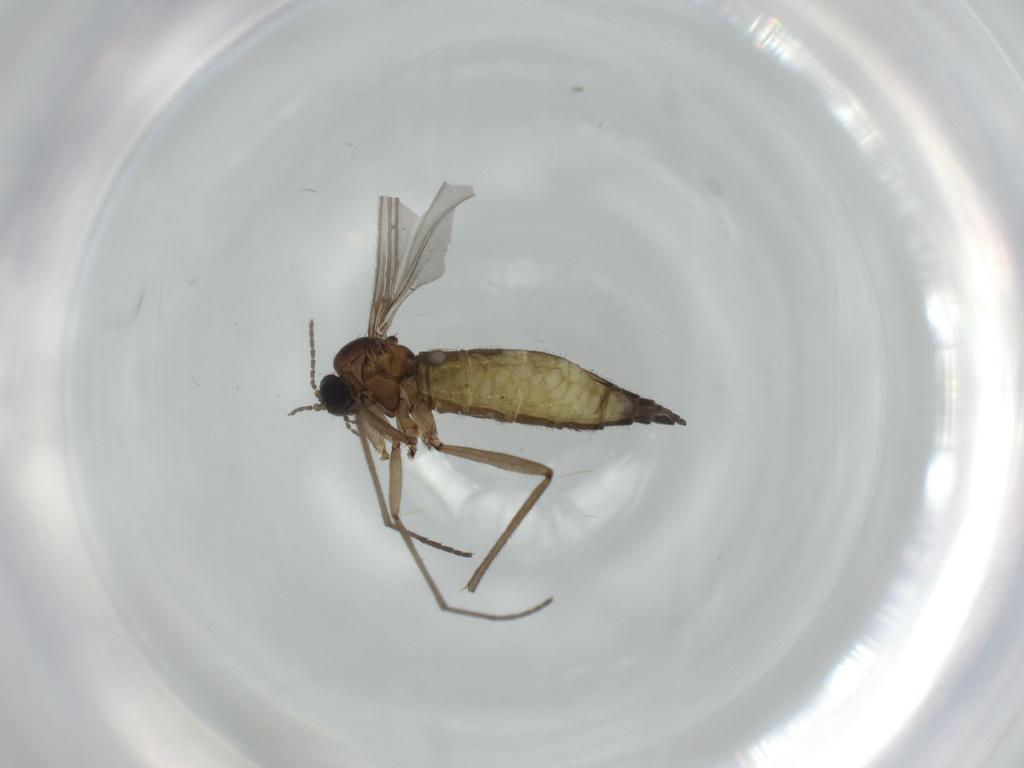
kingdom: Animalia
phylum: Arthropoda
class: Insecta
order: Diptera
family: Sciaridae
